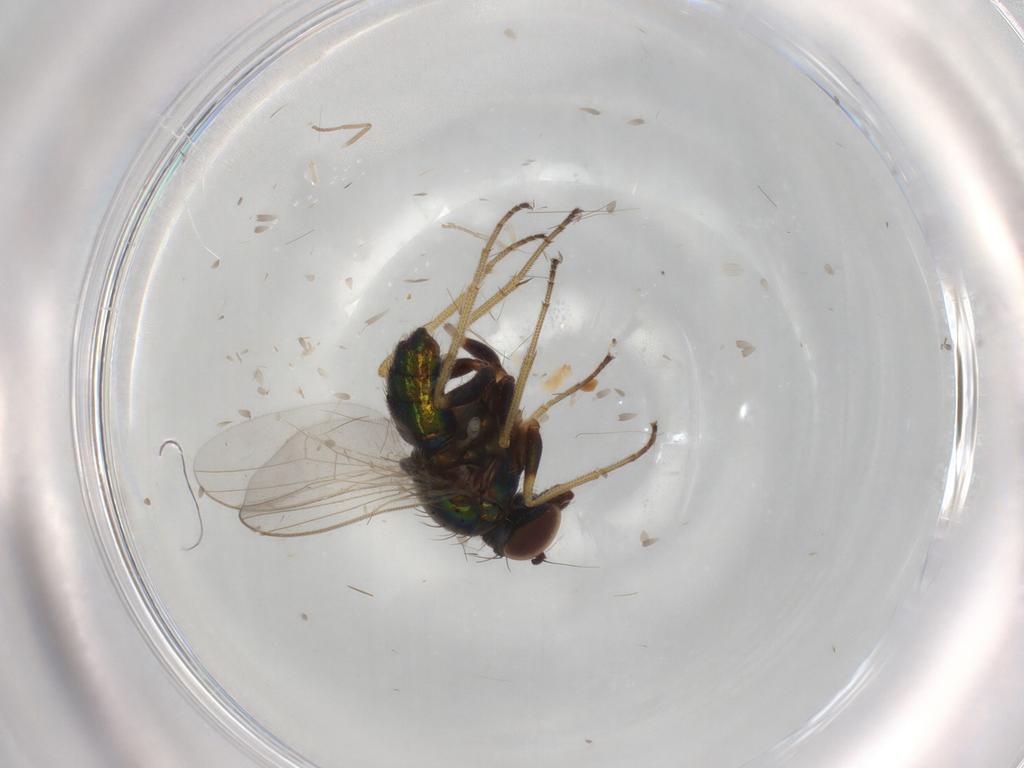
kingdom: Animalia
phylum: Arthropoda
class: Insecta
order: Diptera
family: Dolichopodidae
